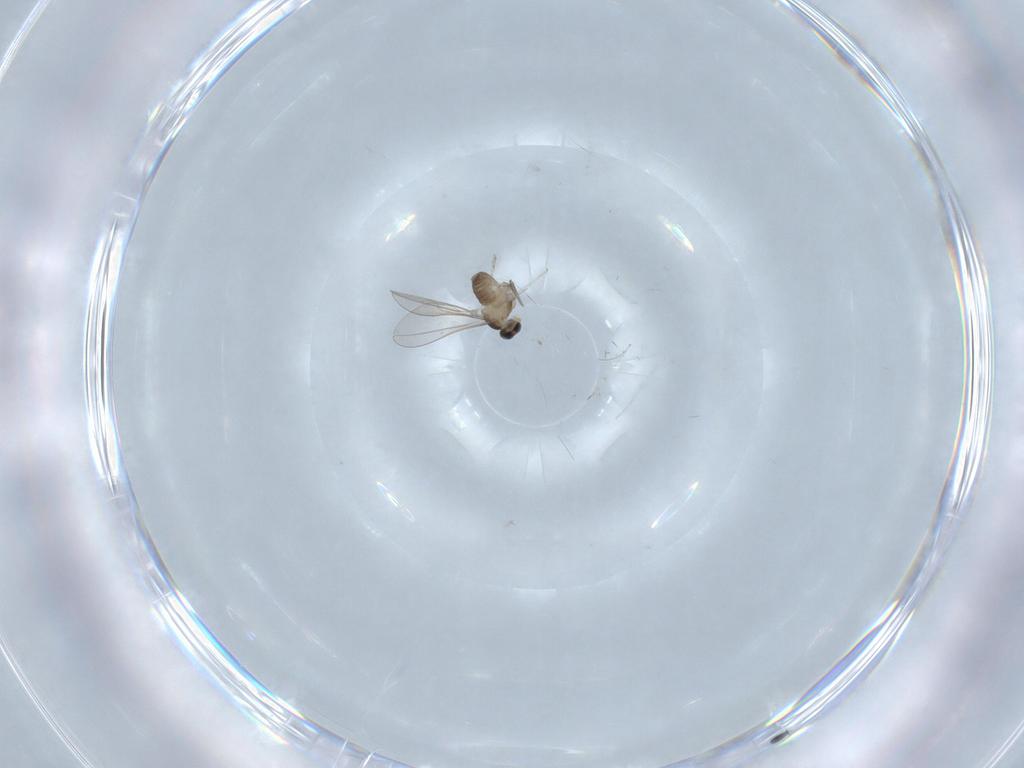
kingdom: Animalia
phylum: Arthropoda
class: Insecta
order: Diptera
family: Cecidomyiidae
